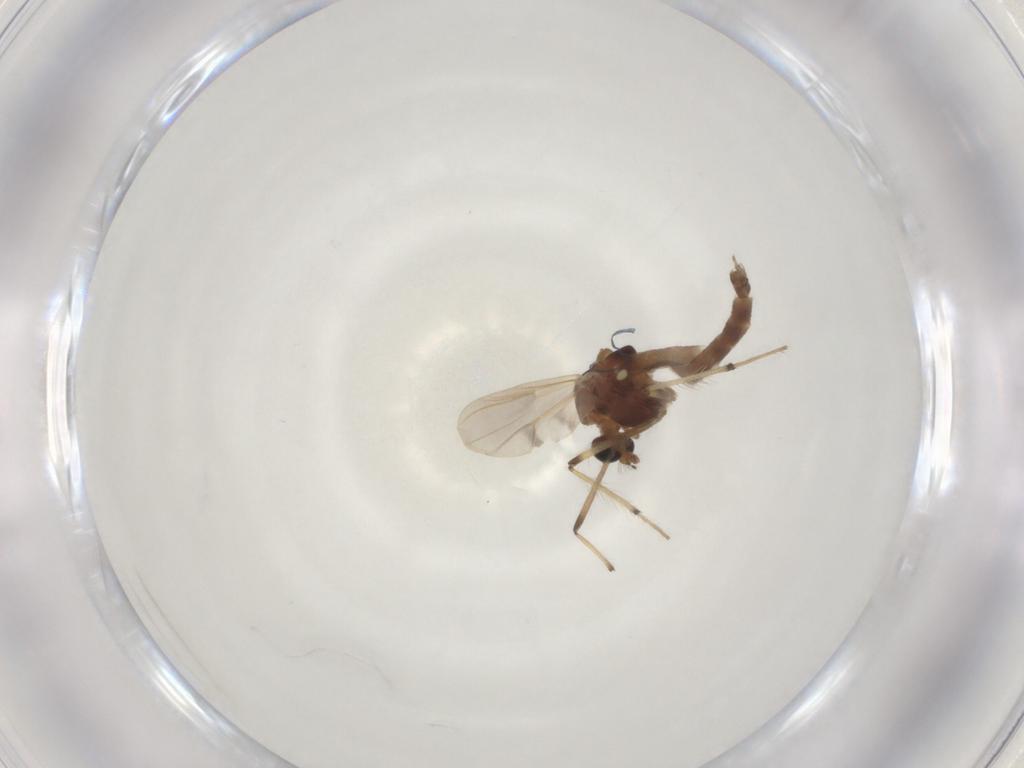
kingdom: Animalia
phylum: Arthropoda
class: Insecta
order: Diptera
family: Chironomidae
